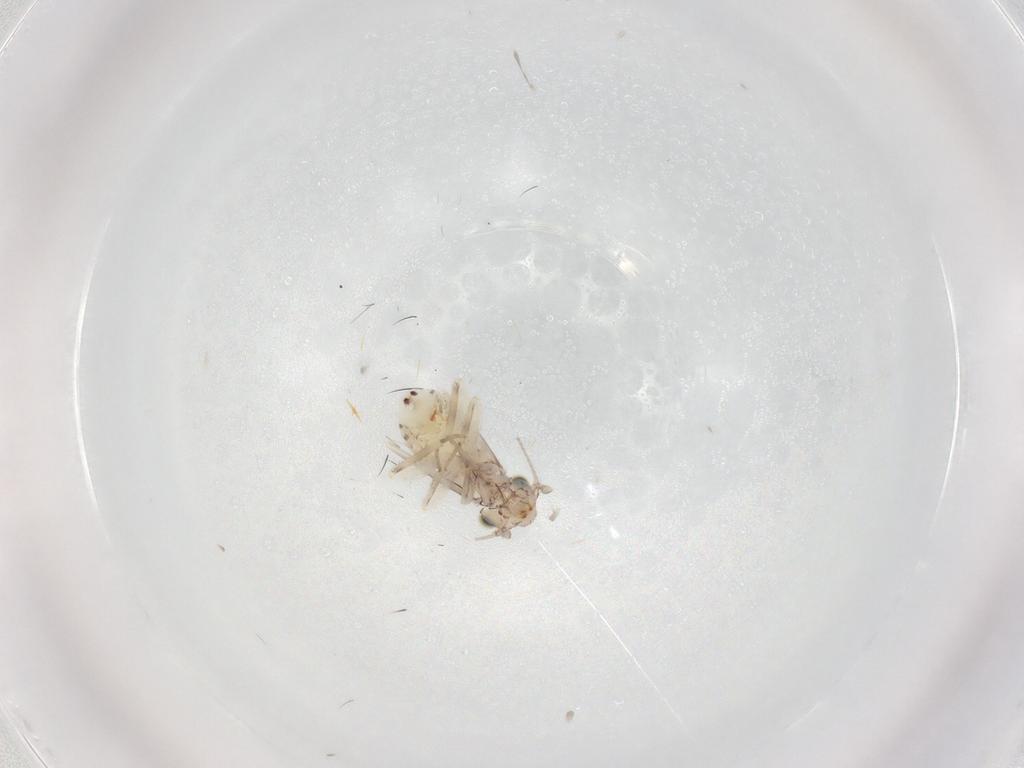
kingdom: Animalia
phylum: Arthropoda
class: Insecta
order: Psocodea
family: Lepidopsocidae
